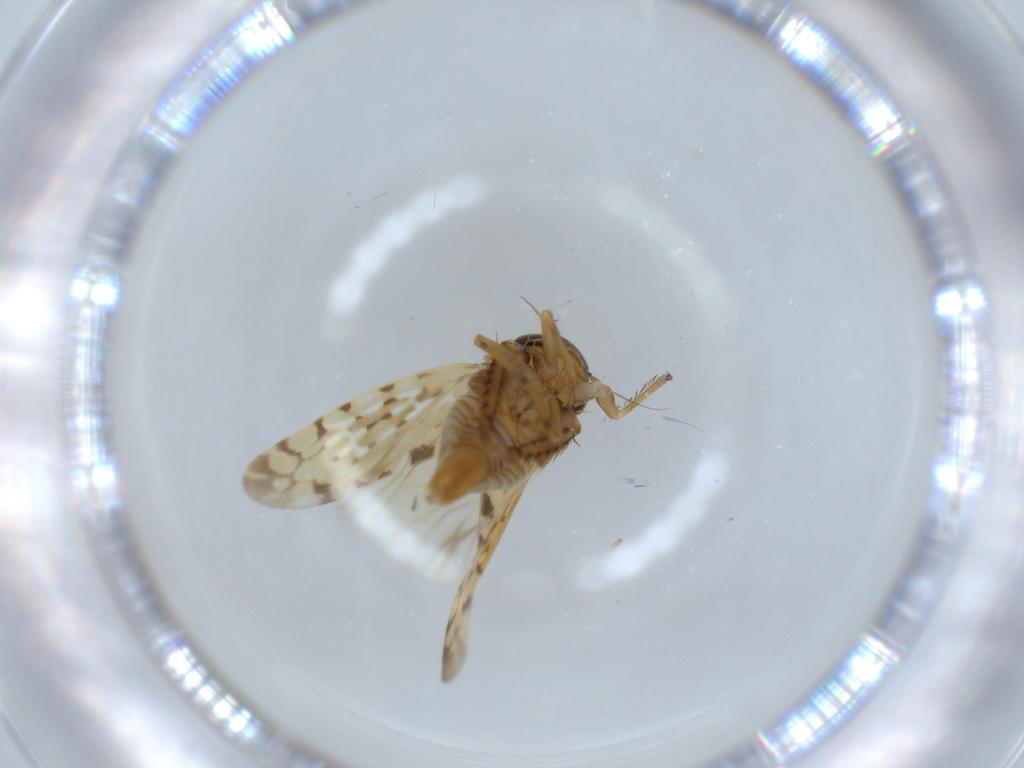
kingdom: Animalia
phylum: Arthropoda
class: Insecta
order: Hemiptera
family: Cicadellidae
